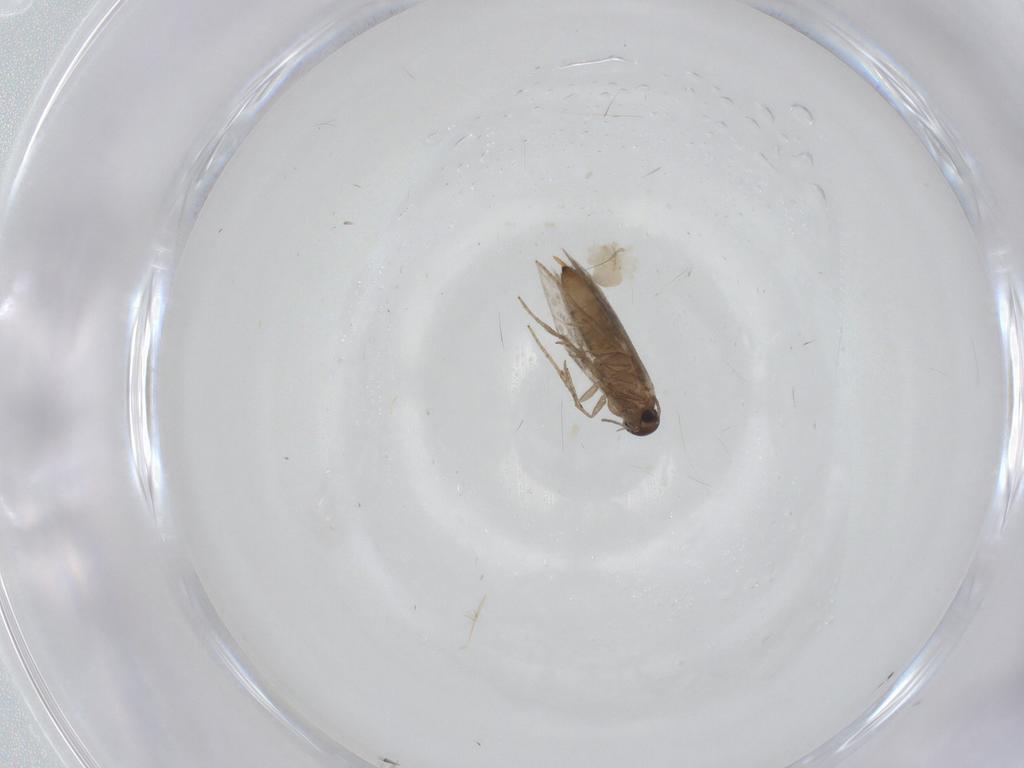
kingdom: Animalia
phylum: Arthropoda
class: Arachnida
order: Trombidiformes
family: Anystidae
